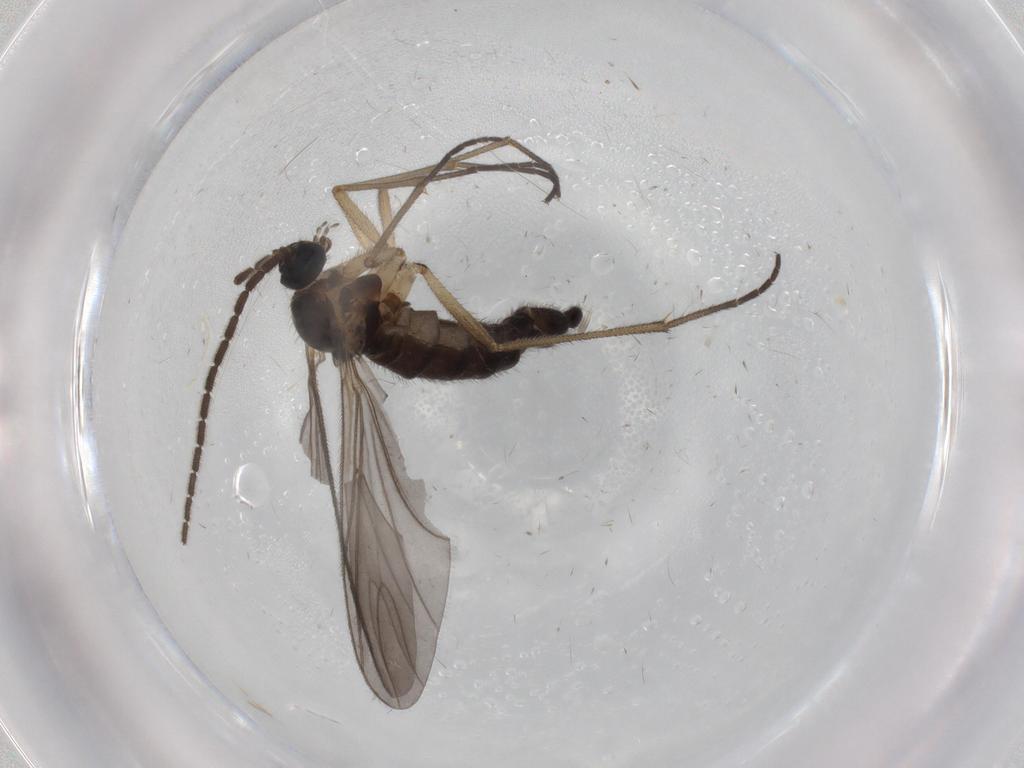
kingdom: Animalia
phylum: Arthropoda
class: Insecta
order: Diptera
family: Sciaridae
